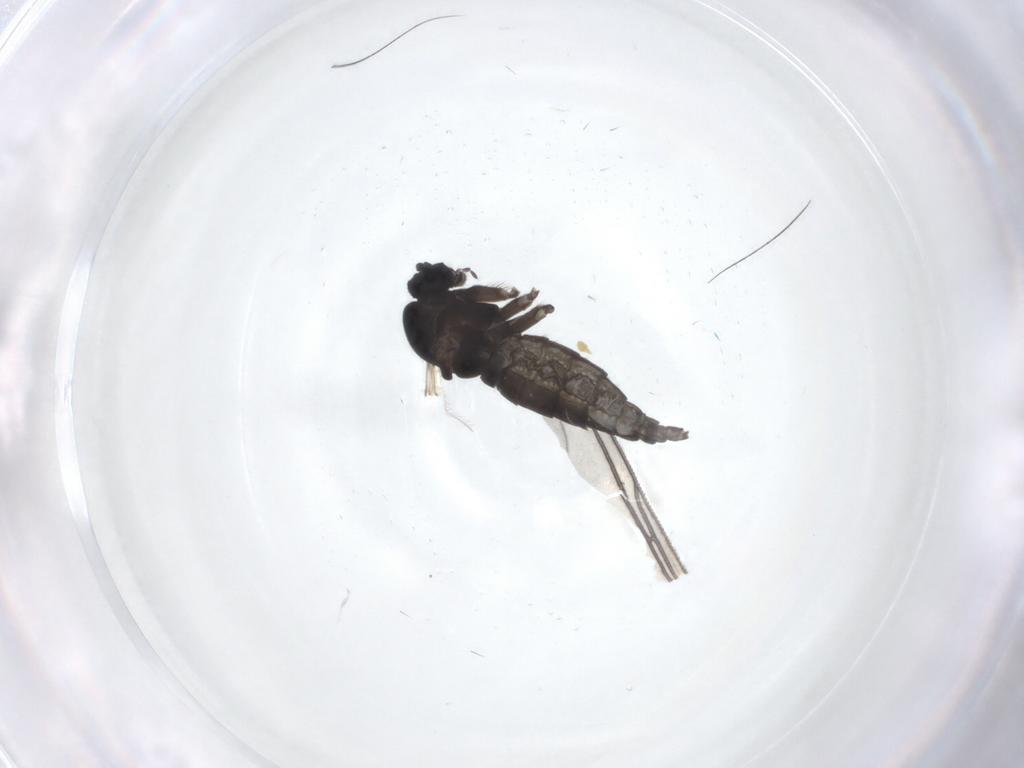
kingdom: Animalia
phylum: Arthropoda
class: Insecta
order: Diptera
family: Sciaridae
